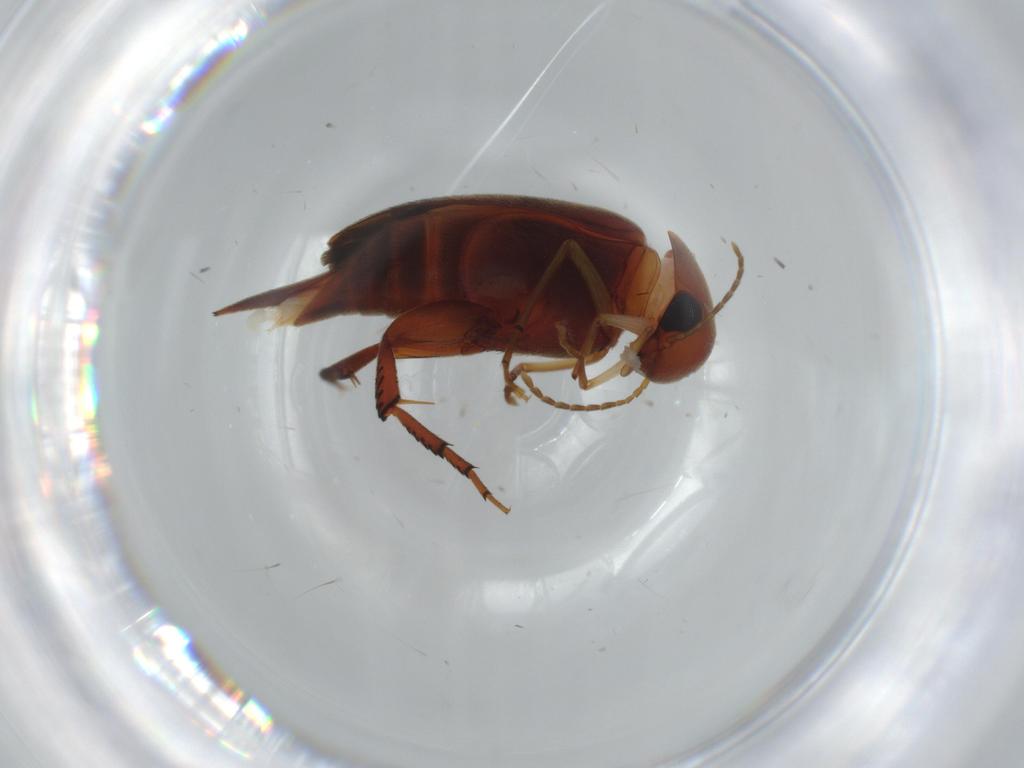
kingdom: Animalia
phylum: Arthropoda
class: Insecta
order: Coleoptera
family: Mordellidae
